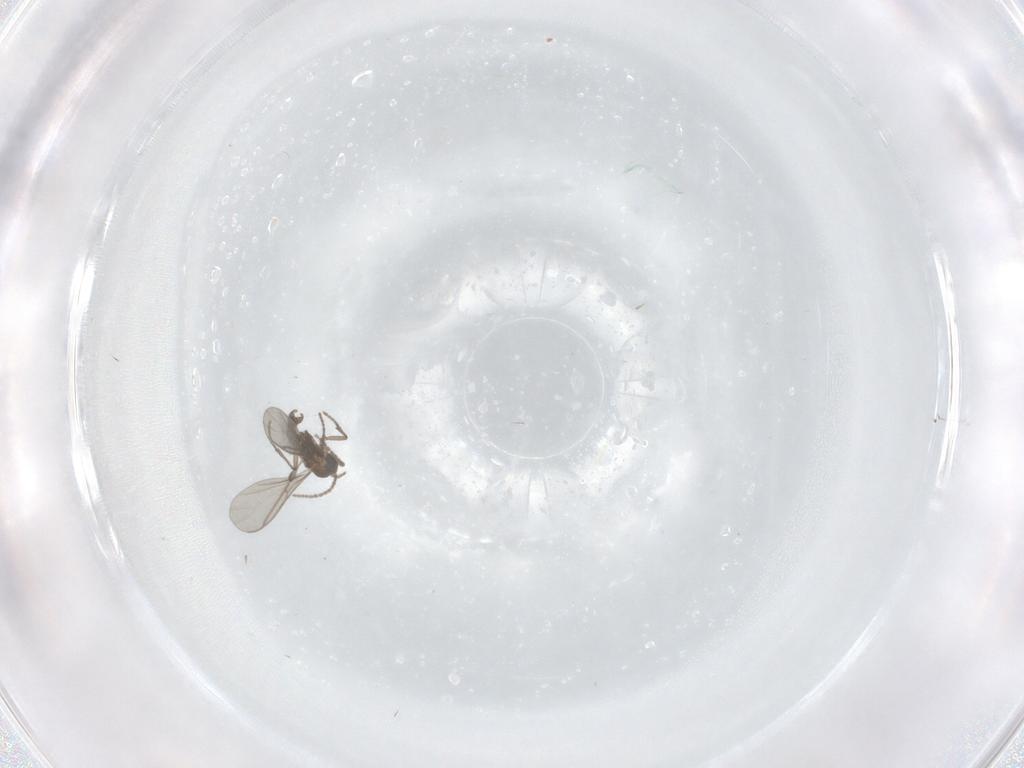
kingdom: Animalia
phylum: Arthropoda
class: Insecta
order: Diptera
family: Sciaridae
